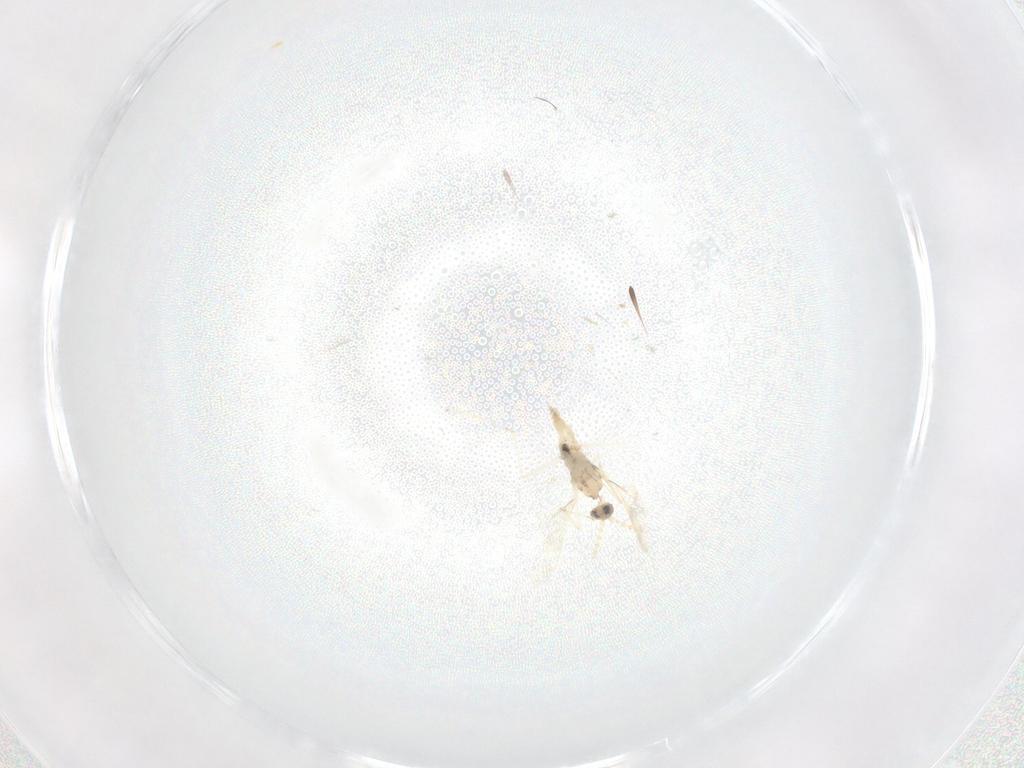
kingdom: Animalia
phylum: Arthropoda
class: Insecta
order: Diptera
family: Cecidomyiidae
